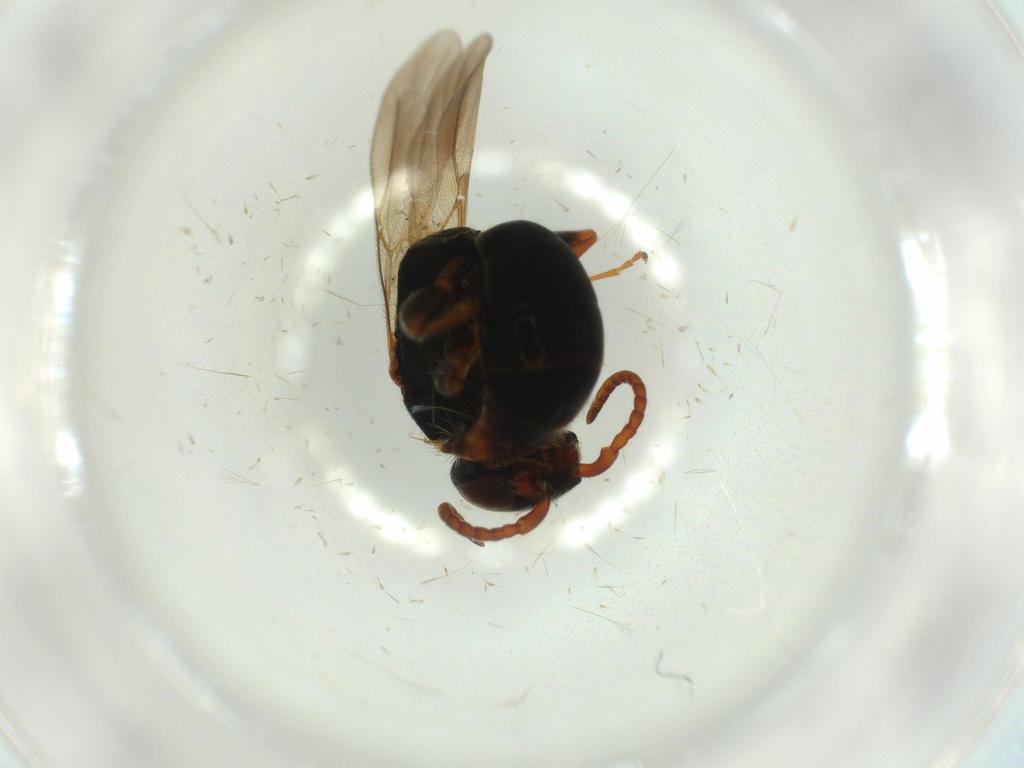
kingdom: Animalia
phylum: Arthropoda
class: Insecta
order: Hymenoptera
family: Bethylidae
